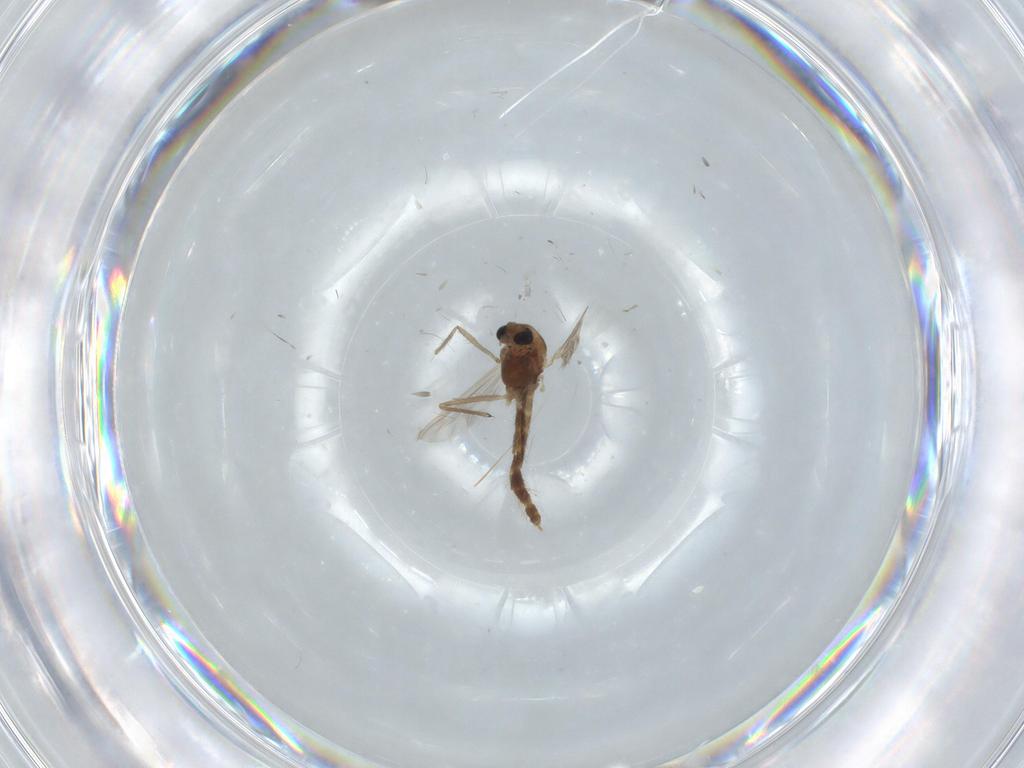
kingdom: Animalia
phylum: Arthropoda
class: Insecta
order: Diptera
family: Chironomidae
